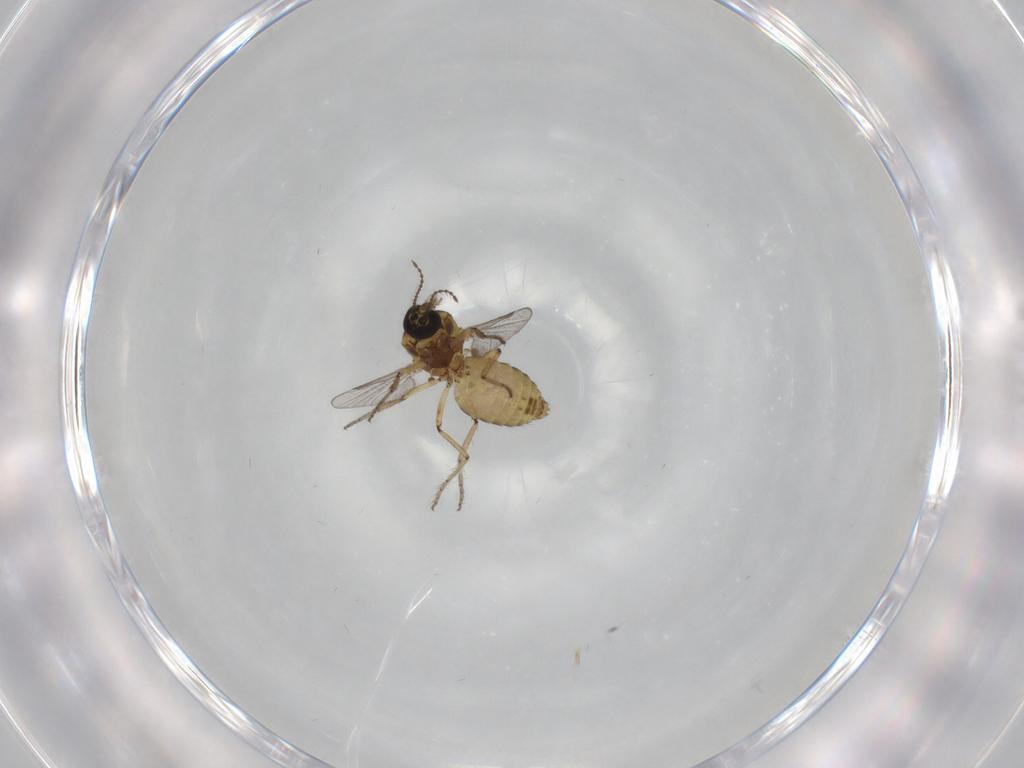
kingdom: Animalia
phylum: Arthropoda
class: Insecta
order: Diptera
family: Ceratopogonidae
